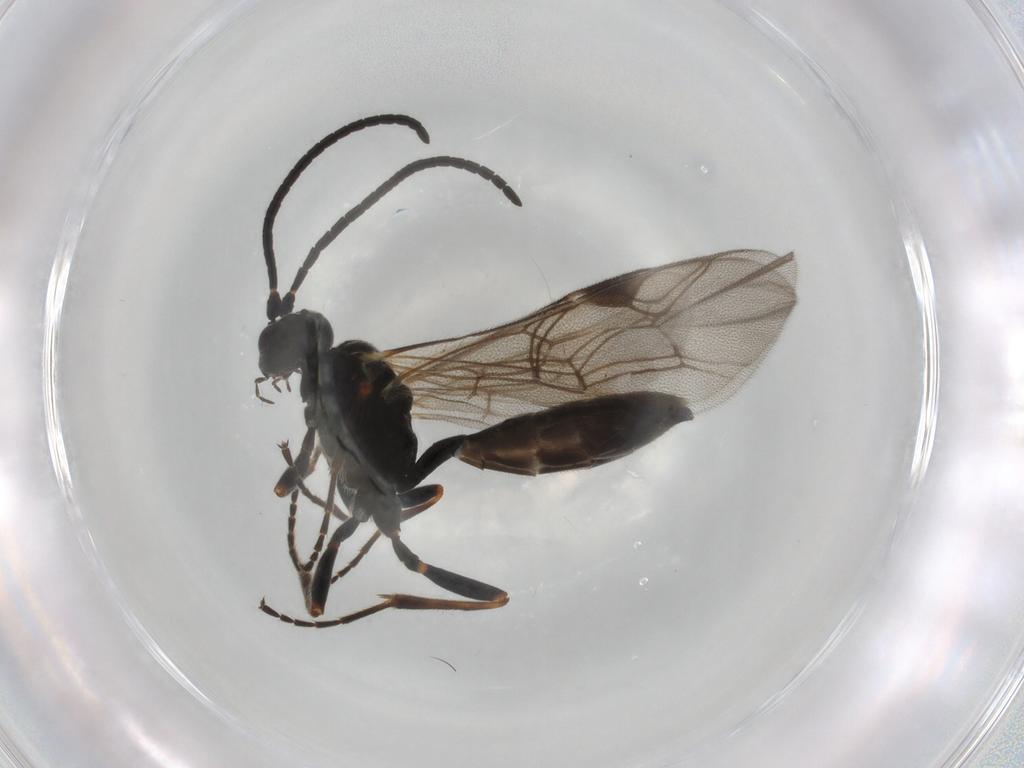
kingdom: Animalia
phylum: Arthropoda
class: Insecta
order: Hymenoptera
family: Ichneumonidae
